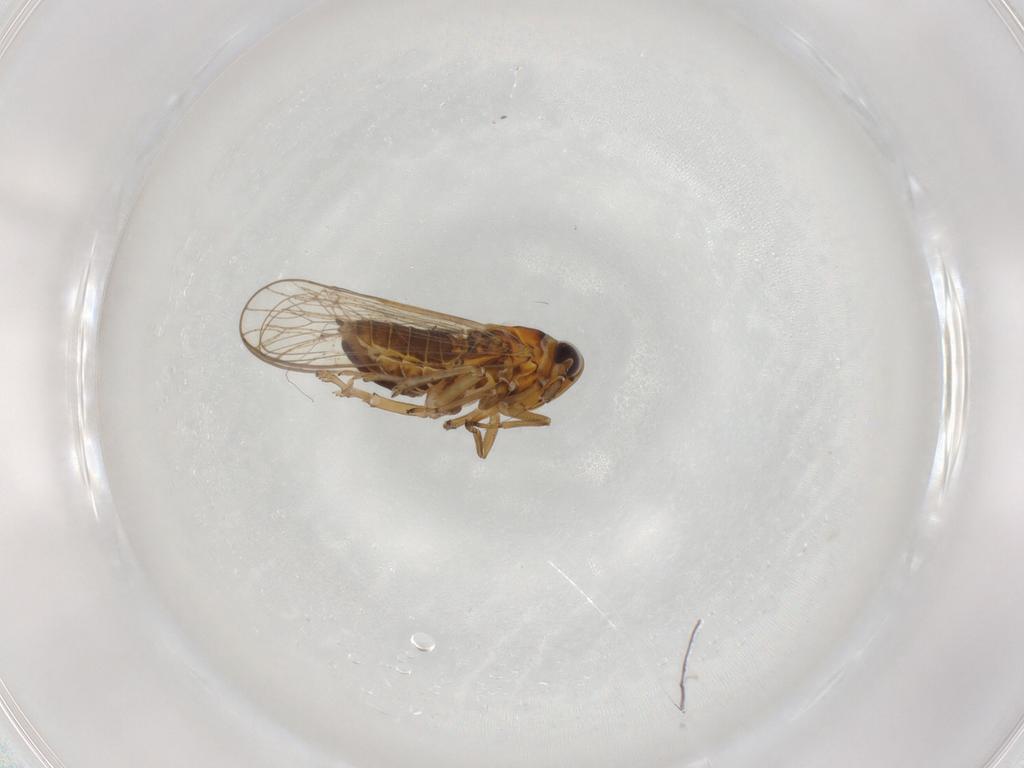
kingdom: Animalia
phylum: Arthropoda
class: Insecta
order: Hemiptera
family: Cicadellidae
